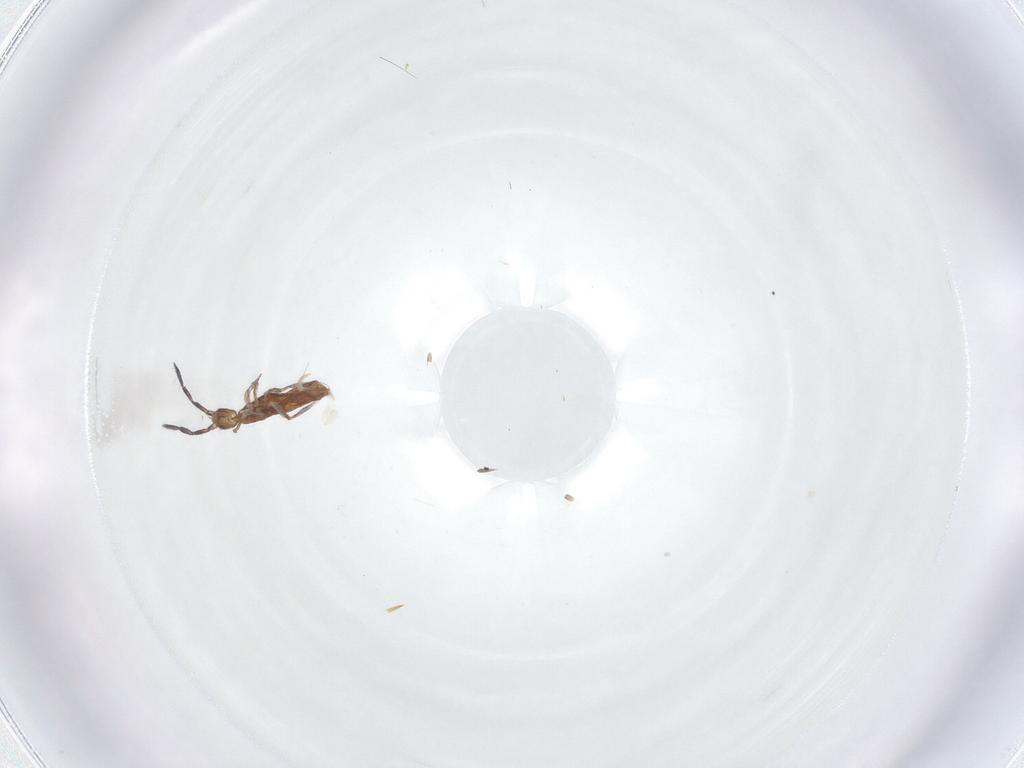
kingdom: Animalia
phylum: Arthropoda
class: Collembola
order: Entomobryomorpha
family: Entomobryidae
